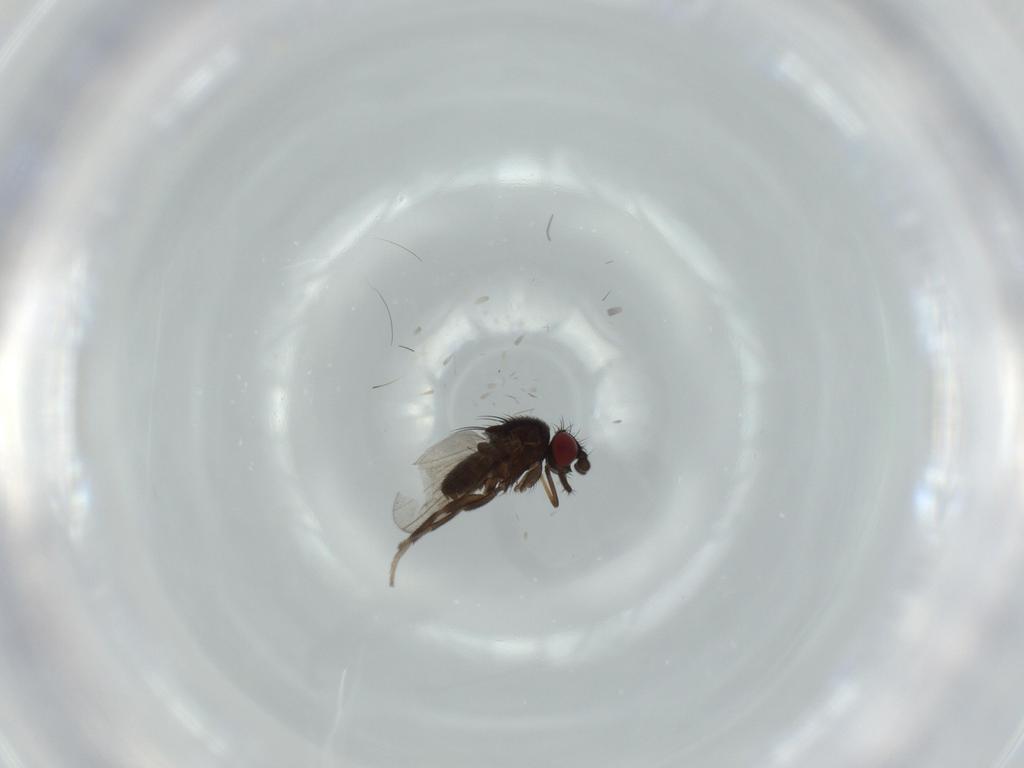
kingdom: Animalia
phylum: Arthropoda
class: Insecta
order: Diptera
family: Milichiidae
